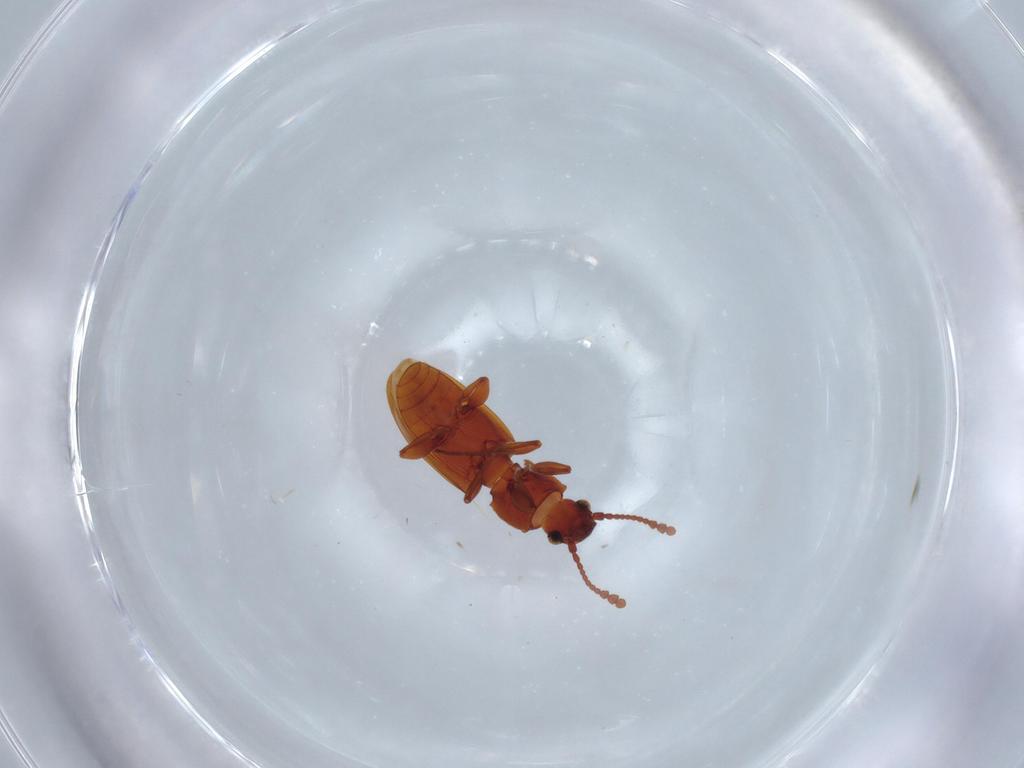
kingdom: Animalia
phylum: Arthropoda
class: Insecta
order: Coleoptera
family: Silvanidae
